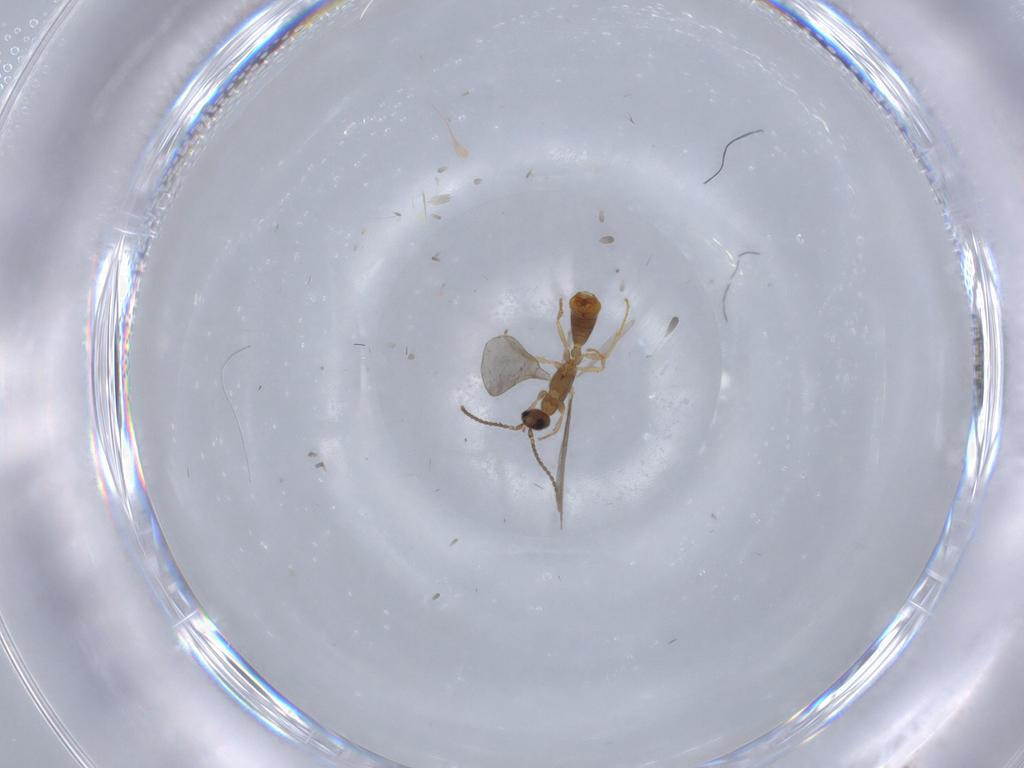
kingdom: Animalia
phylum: Arthropoda
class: Insecta
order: Hymenoptera
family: Formicidae
